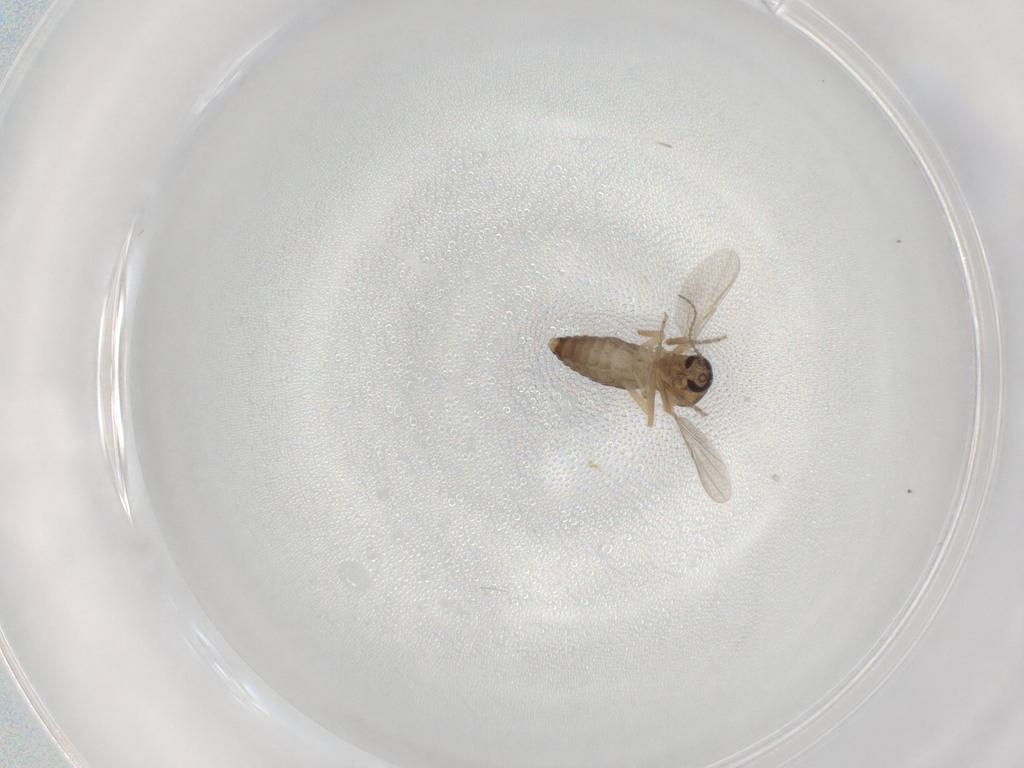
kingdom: Animalia
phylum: Arthropoda
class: Insecta
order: Diptera
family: Ceratopogonidae
